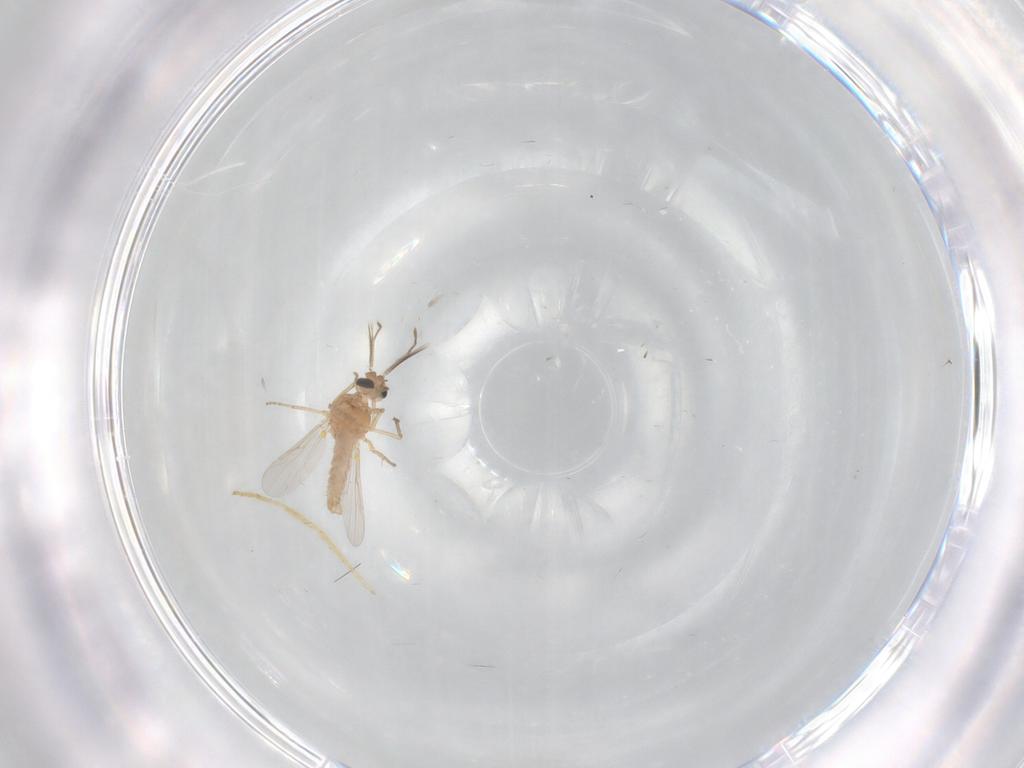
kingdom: Animalia
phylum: Arthropoda
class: Insecta
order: Diptera
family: Ceratopogonidae
